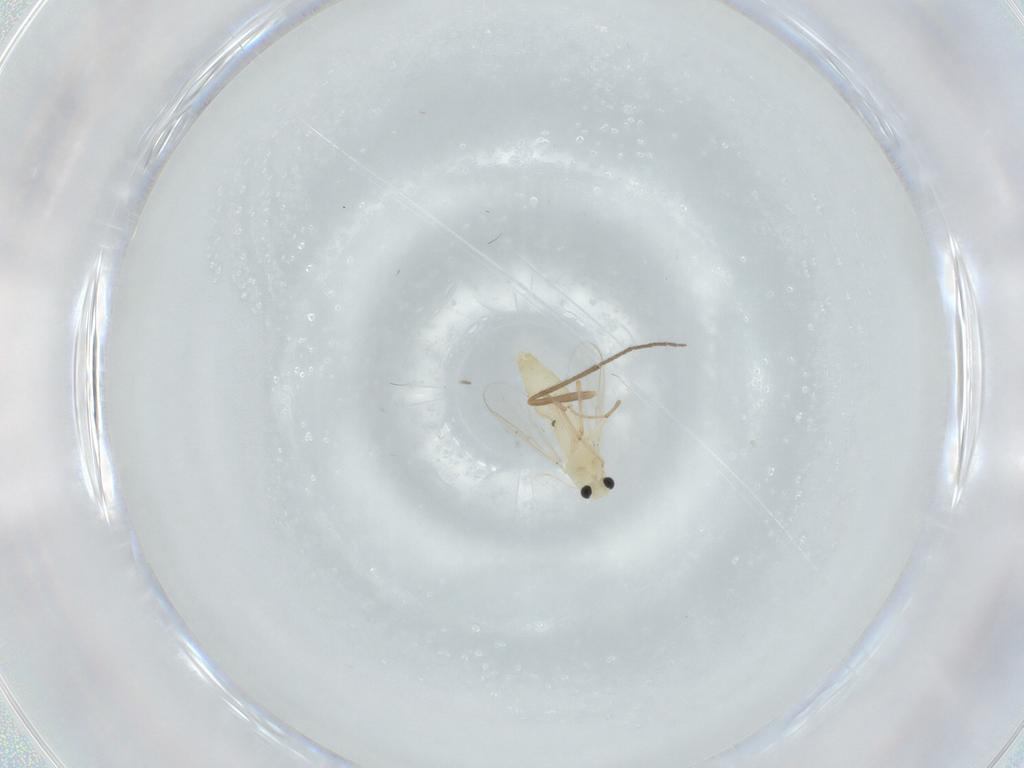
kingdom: Animalia
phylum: Arthropoda
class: Insecta
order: Diptera
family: Chironomidae
